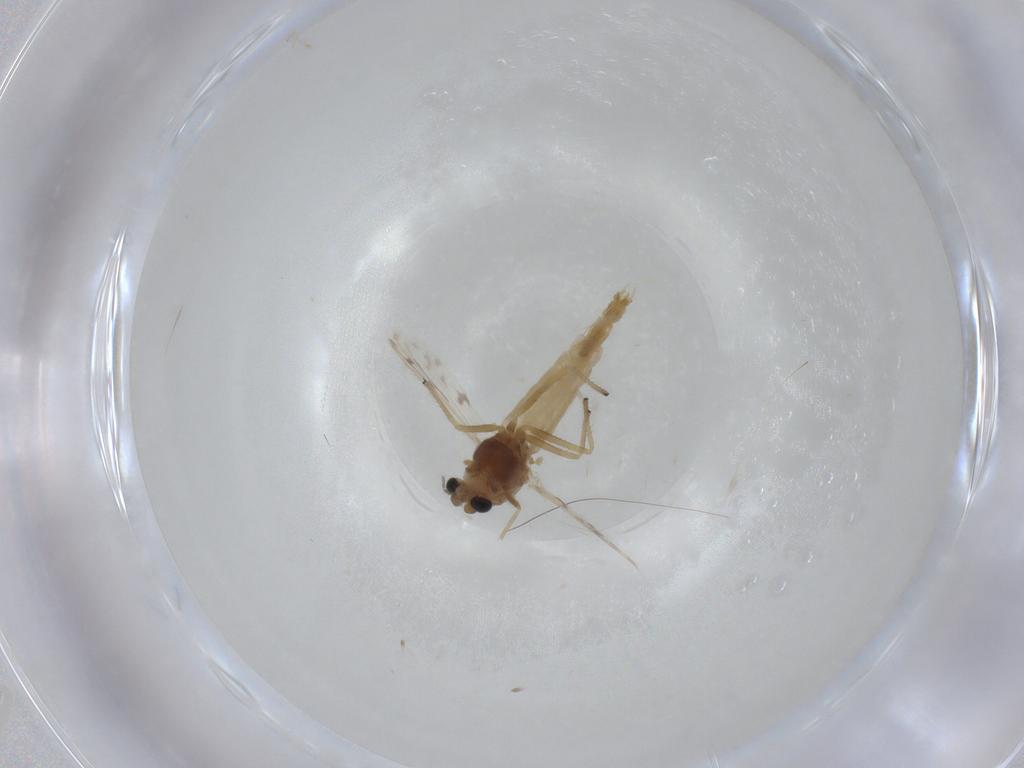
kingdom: Animalia
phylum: Arthropoda
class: Insecta
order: Diptera
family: Chironomidae
